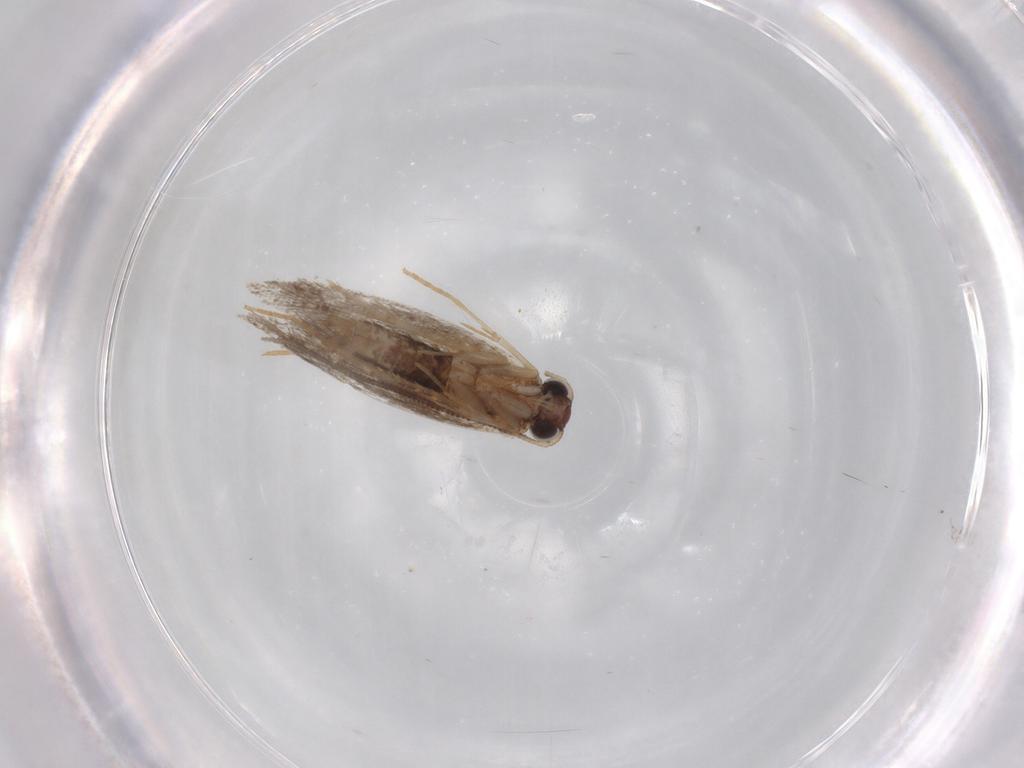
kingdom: Animalia
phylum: Arthropoda
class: Insecta
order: Lepidoptera
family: Tineidae
